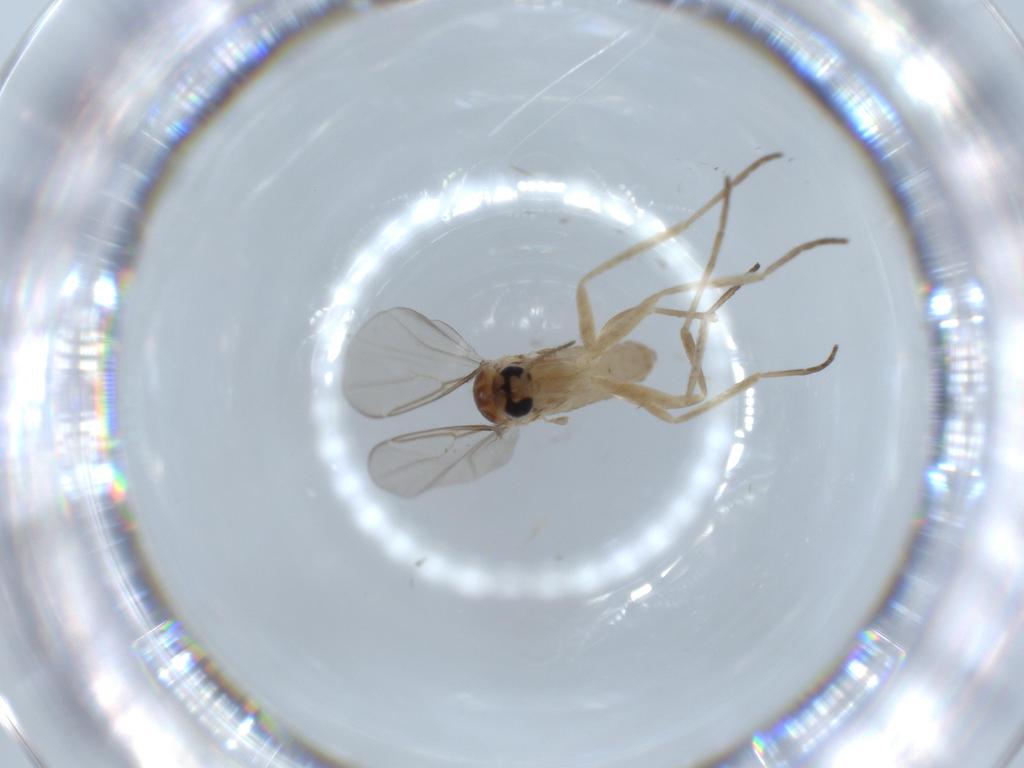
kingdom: Animalia
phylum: Arthropoda
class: Insecta
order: Diptera
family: Cecidomyiidae
